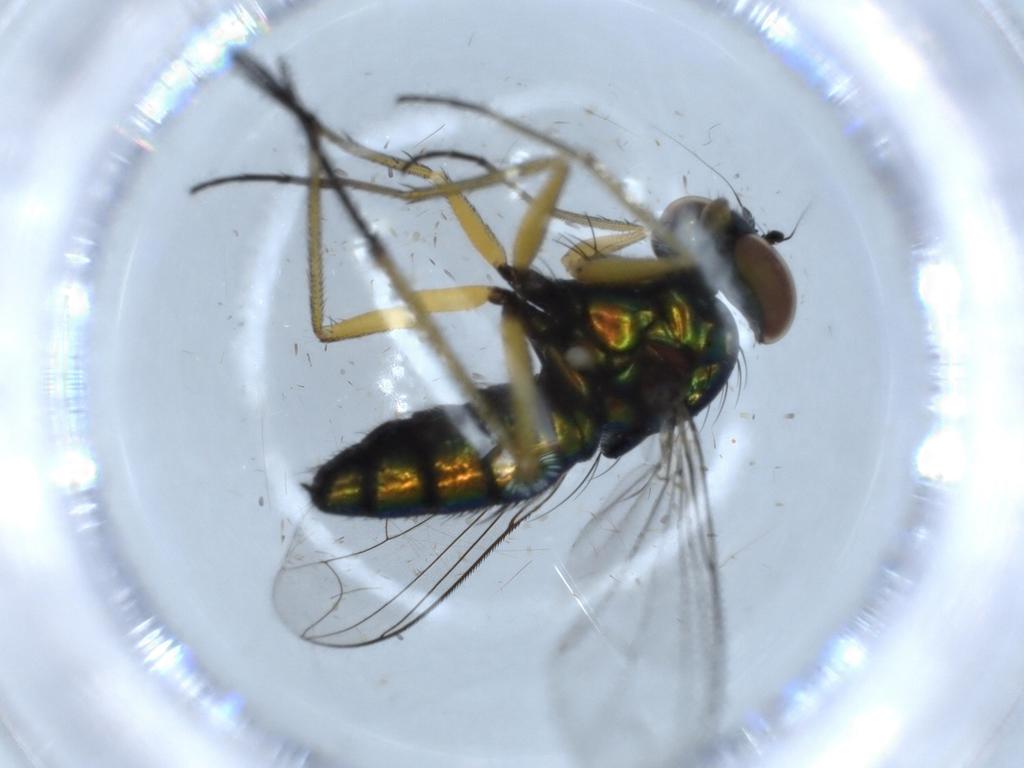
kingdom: Animalia
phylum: Arthropoda
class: Insecta
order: Diptera
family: Dolichopodidae
